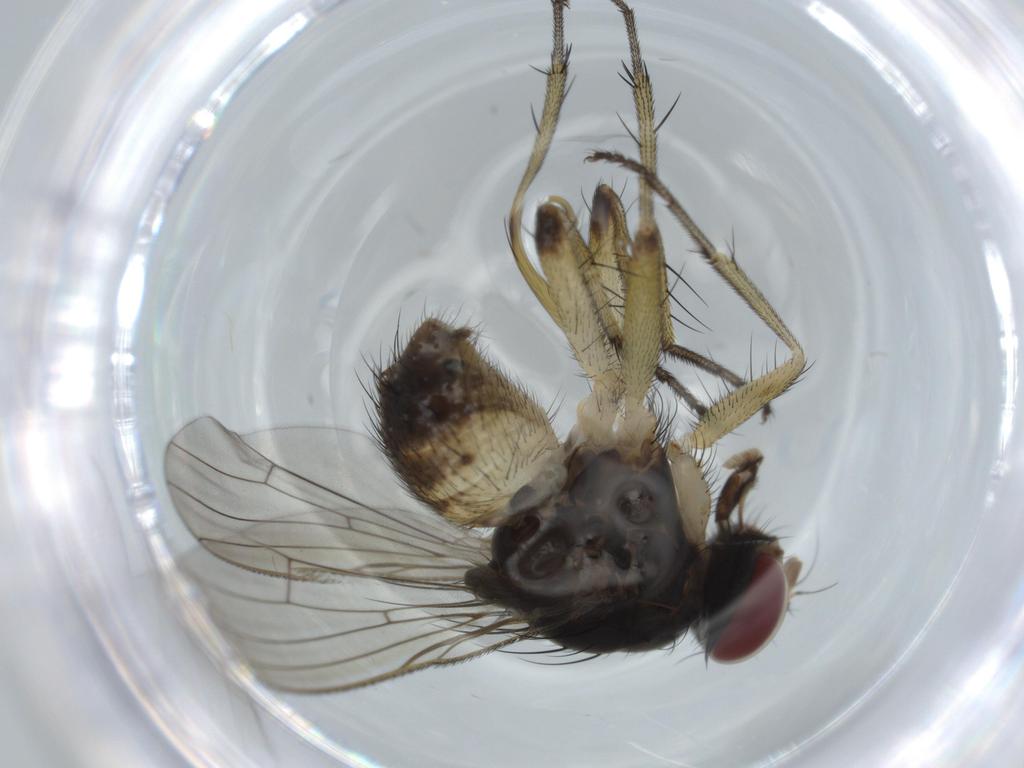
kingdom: Animalia
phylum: Arthropoda
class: Insecta
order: Diptera
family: Muscidae
